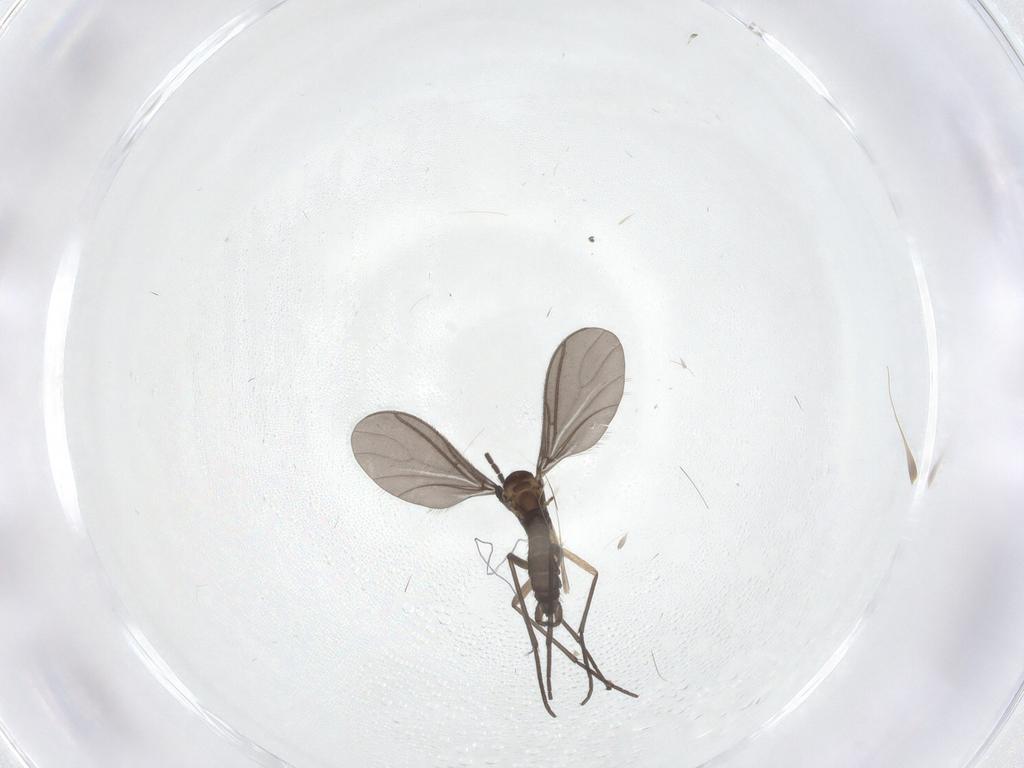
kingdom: Animalia
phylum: Arthropoda
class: Insecta
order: Diptera
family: Sciaridae
